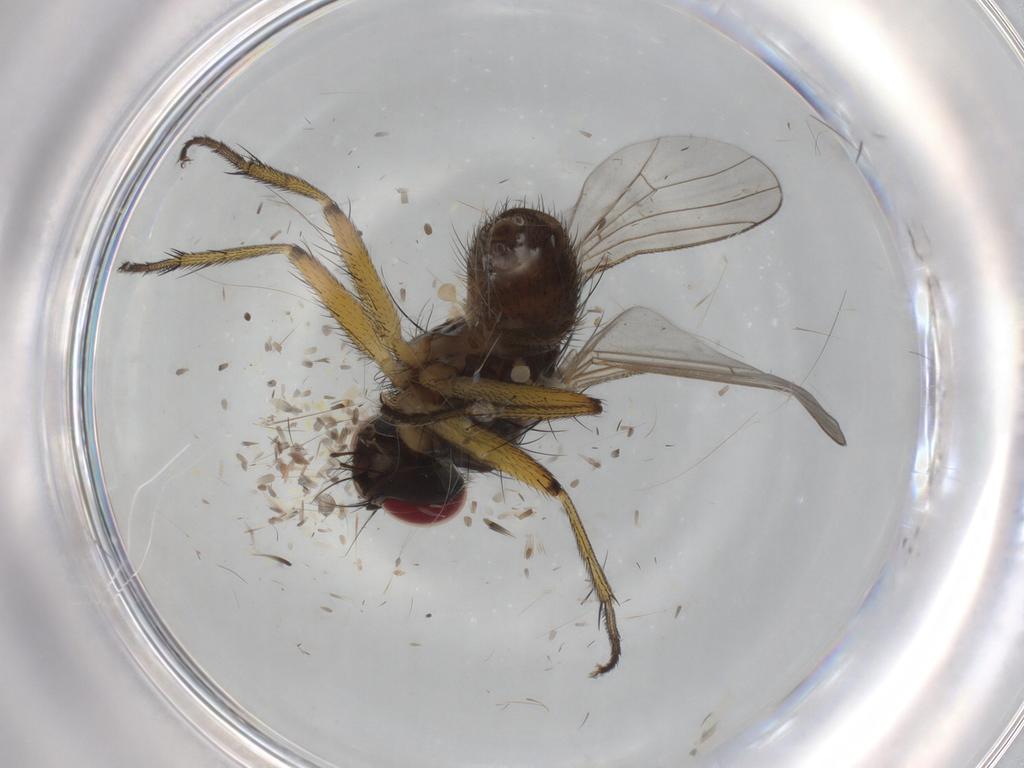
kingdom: Animalia
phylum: Arthropoda
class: Insecta
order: Diptera
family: Muscidae
